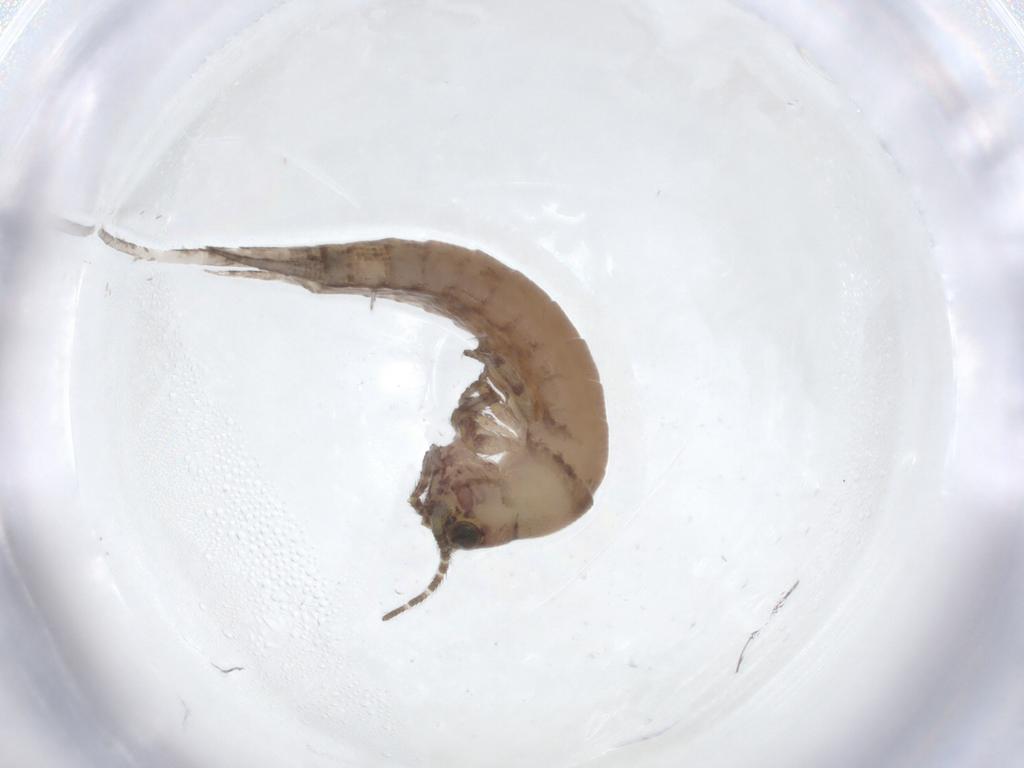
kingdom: Animalia
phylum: Arthropoda
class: Insecta
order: Archaeognatha
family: Machilidae
